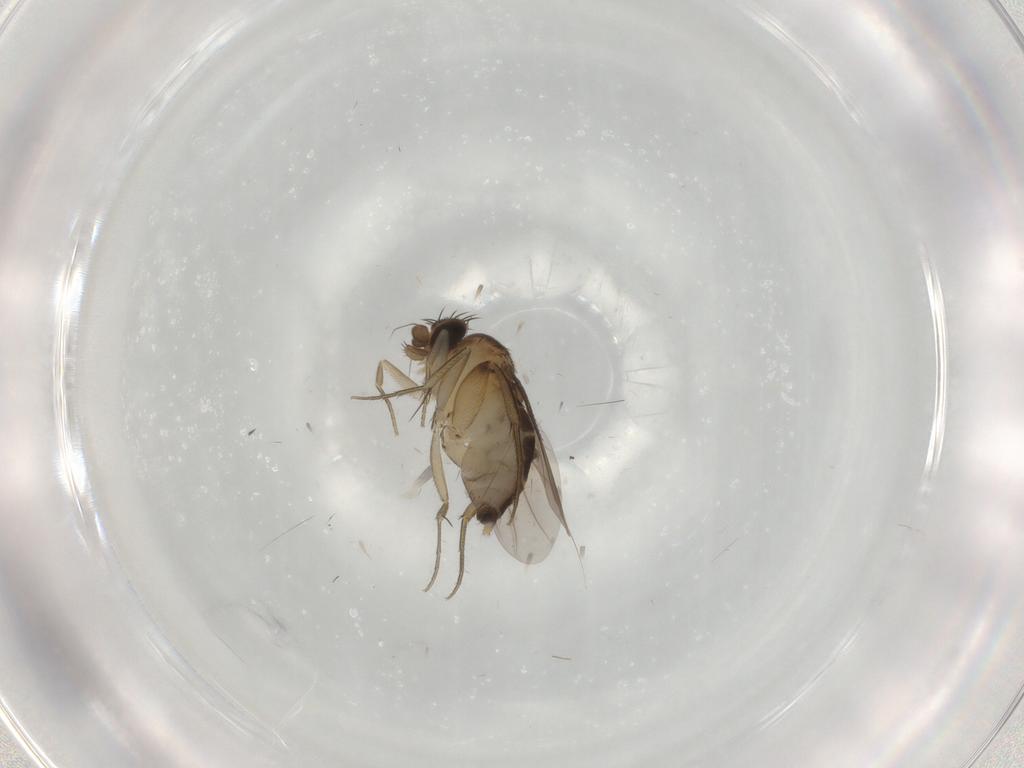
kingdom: Animalia
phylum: Arthropoda
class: Insecta
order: Diptera
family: Phoridae
